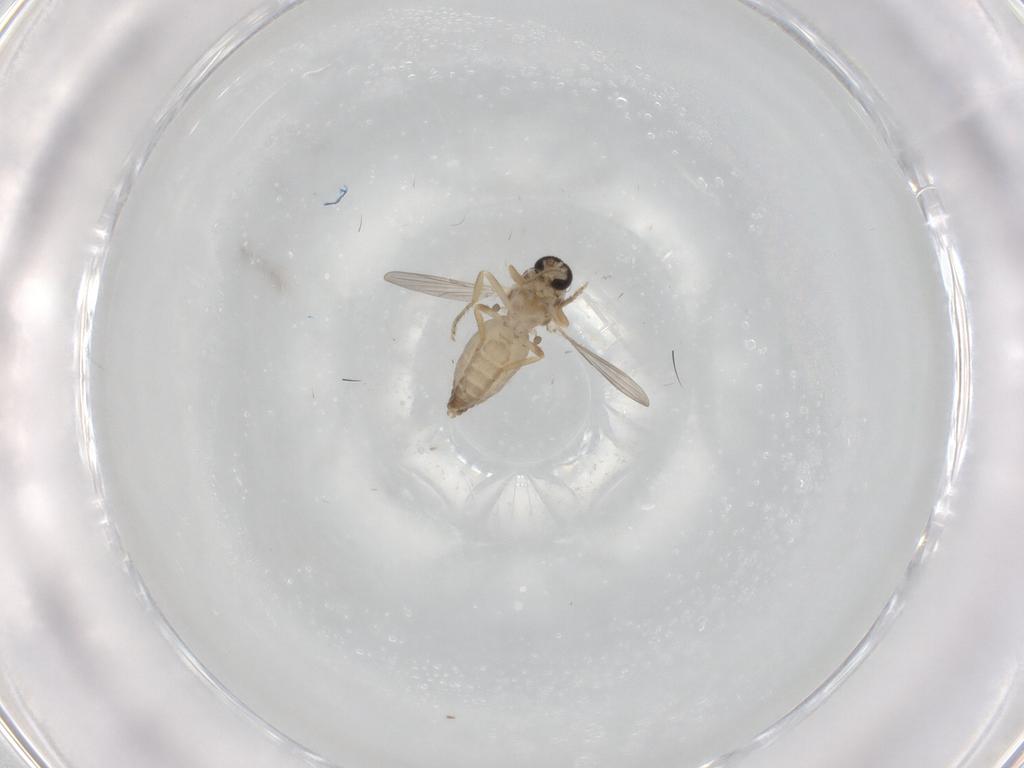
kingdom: Animalia
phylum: Arthropoda
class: Insecta
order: Diptera
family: Ceratopogonidae
